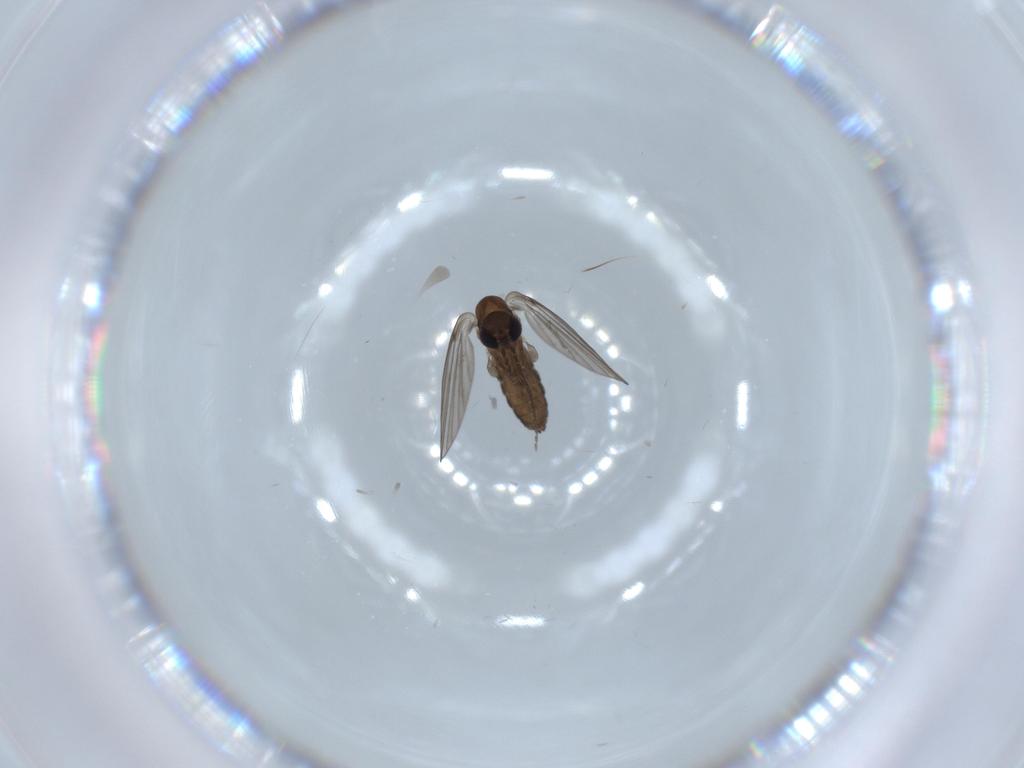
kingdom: Animalia
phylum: Arthropoda
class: Insecta
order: Diptera
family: Psychodidae
